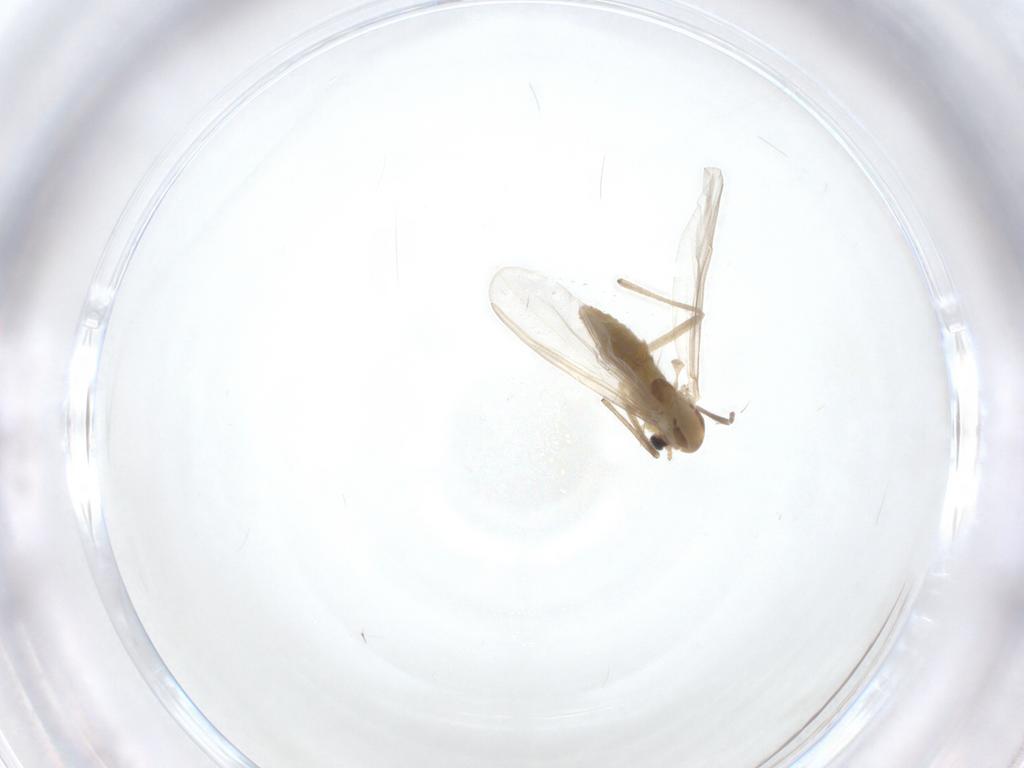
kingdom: Animalia
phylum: Arthropoda
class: Insecta
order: Diptera
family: Chironomidae
